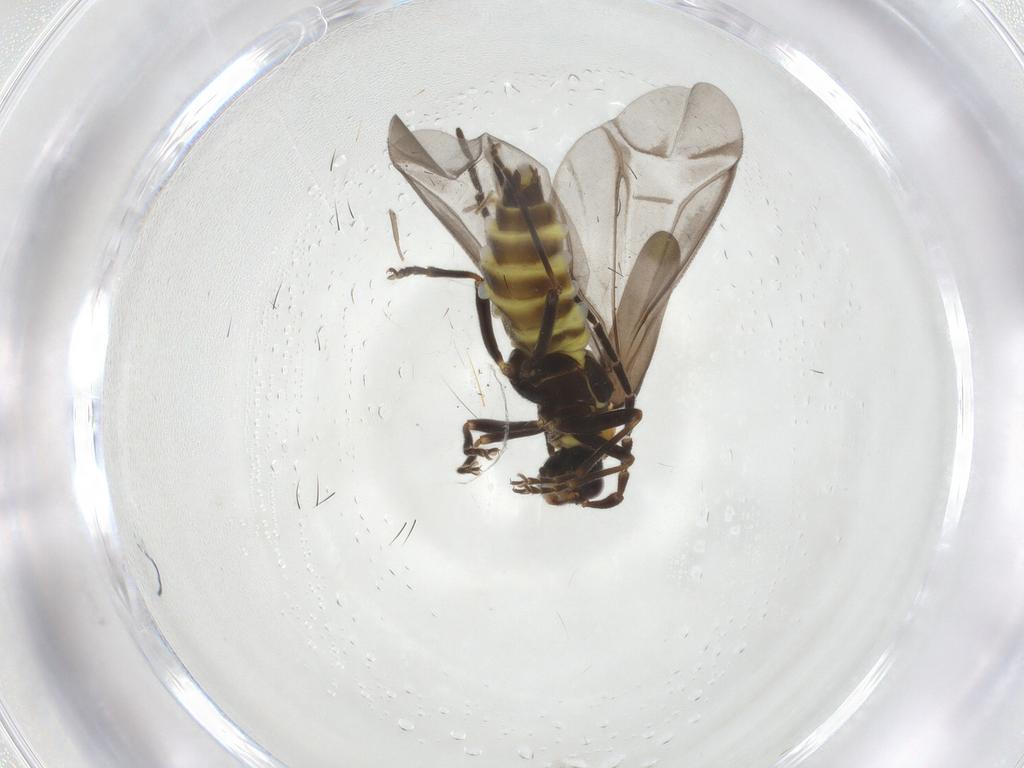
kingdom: Animalia
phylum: Arthropoda
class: Insecta
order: Coleoptera
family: Cantharidae
